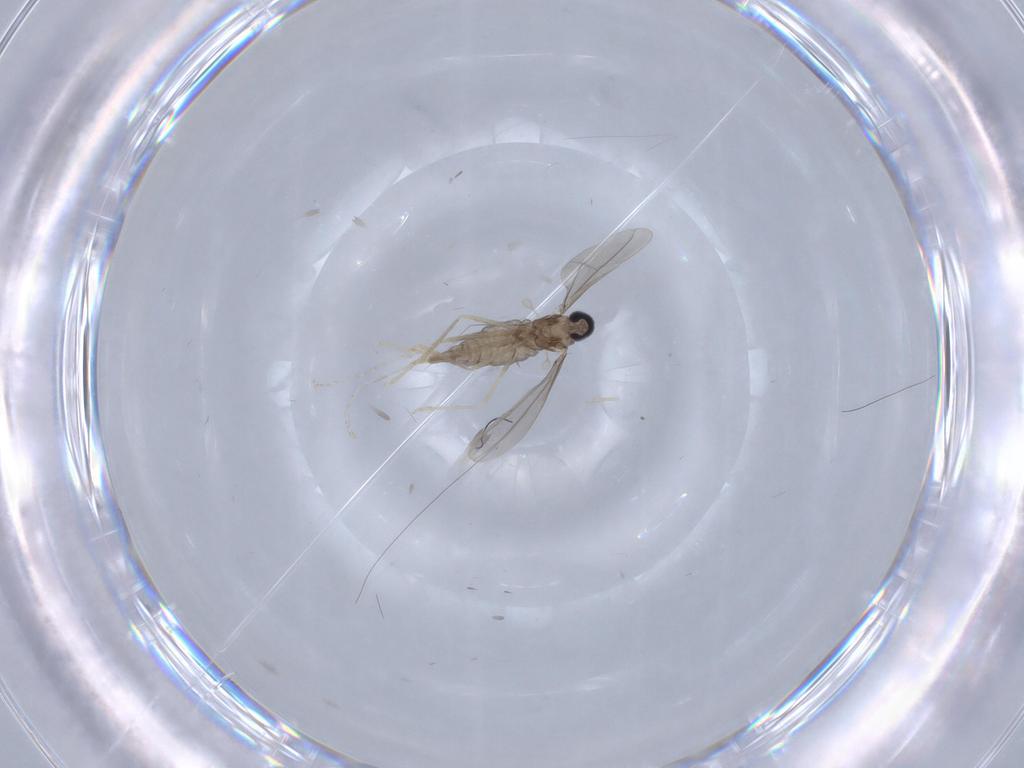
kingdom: Animalia
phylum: Arthropoda
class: Insecta
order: Diptera
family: Cecidomyiidae
